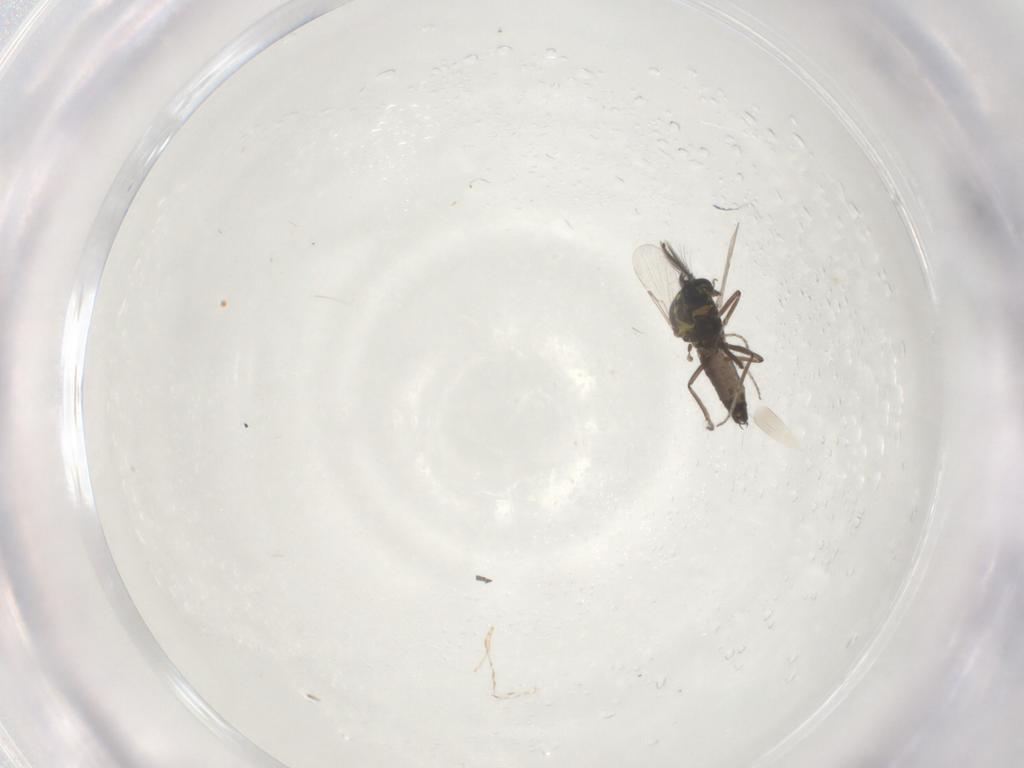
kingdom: Animalia
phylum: Arthropoda
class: Insecta
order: Diptera
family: Ceratopogonidae
